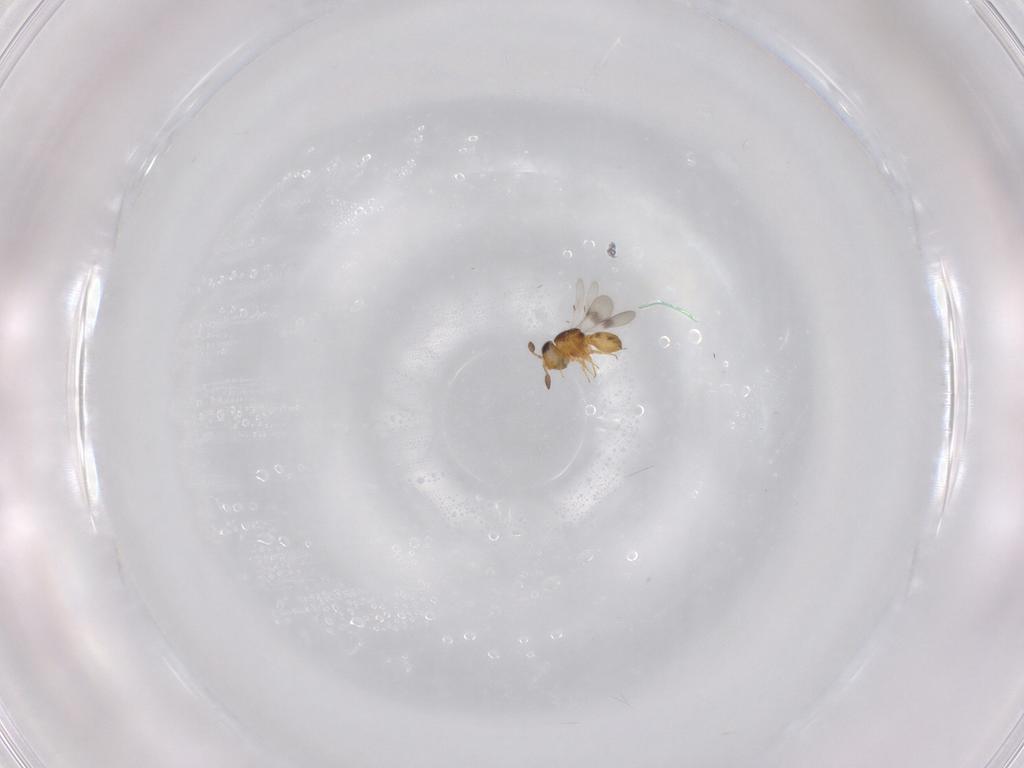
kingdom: Animalia
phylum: Arthropoda
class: Insecta
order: Hymenoptera
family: Scelionidae
